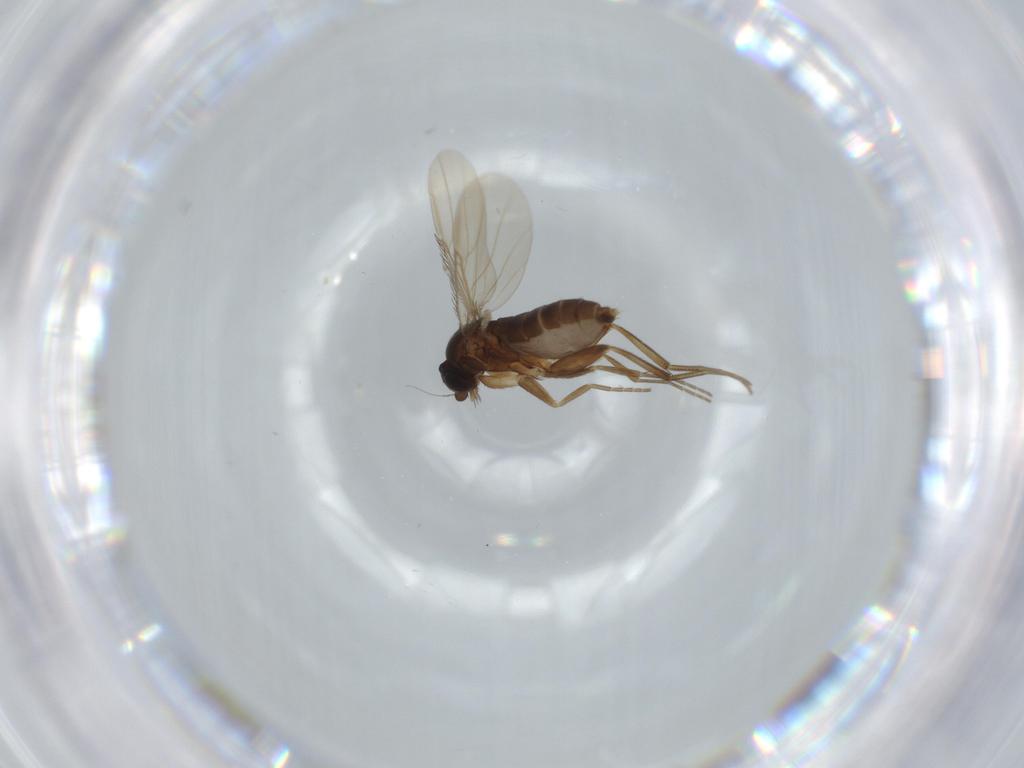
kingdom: Animalia
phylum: Arthropoda
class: Insecta
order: Diptera
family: Phoridae
